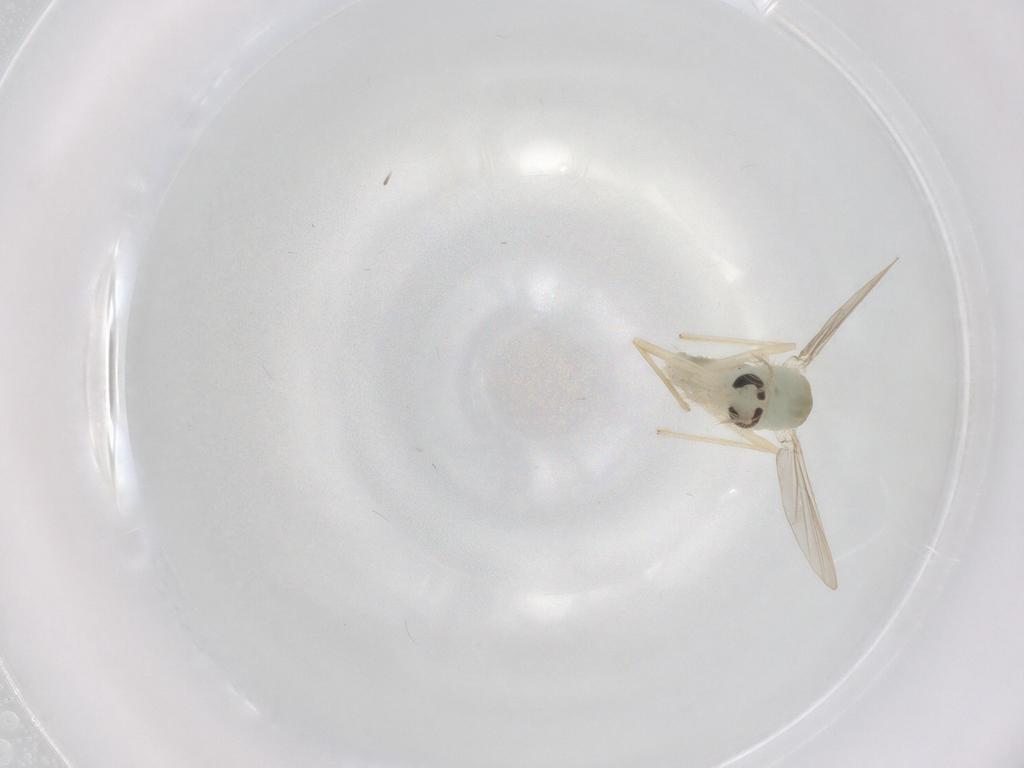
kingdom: Animalia
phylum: Arthropoda
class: Insecta
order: Diptera
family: Chironomidae
